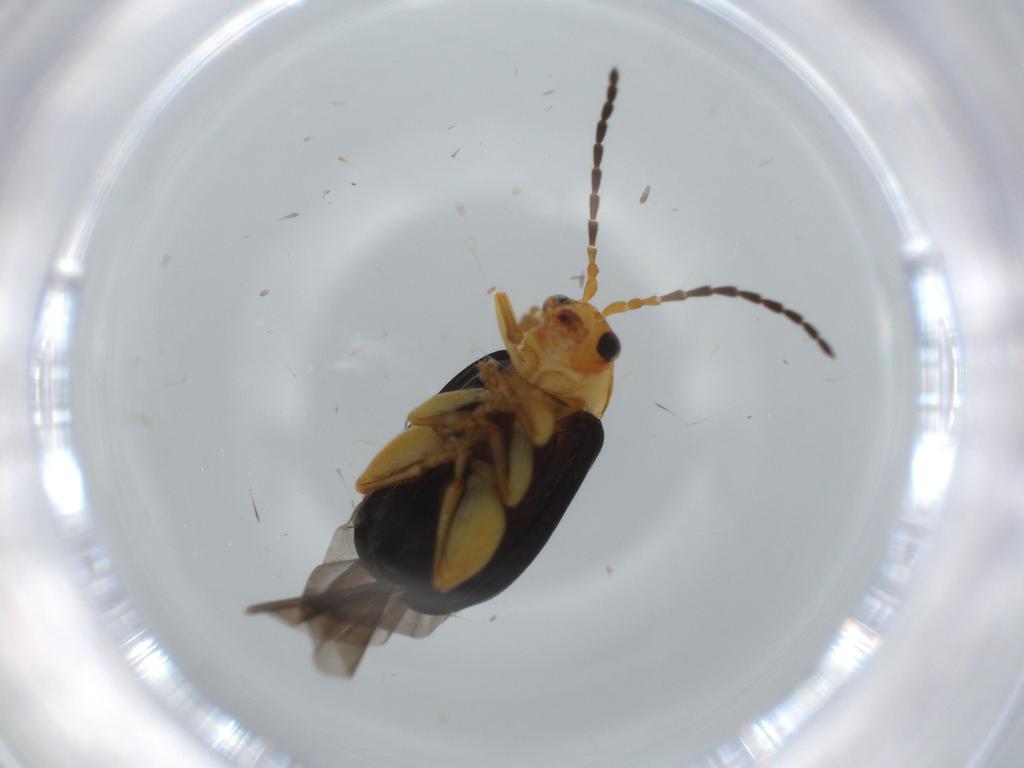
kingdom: Animalia
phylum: Arthropoda
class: Insecta
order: Coleoptera
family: Chrysomelidae
